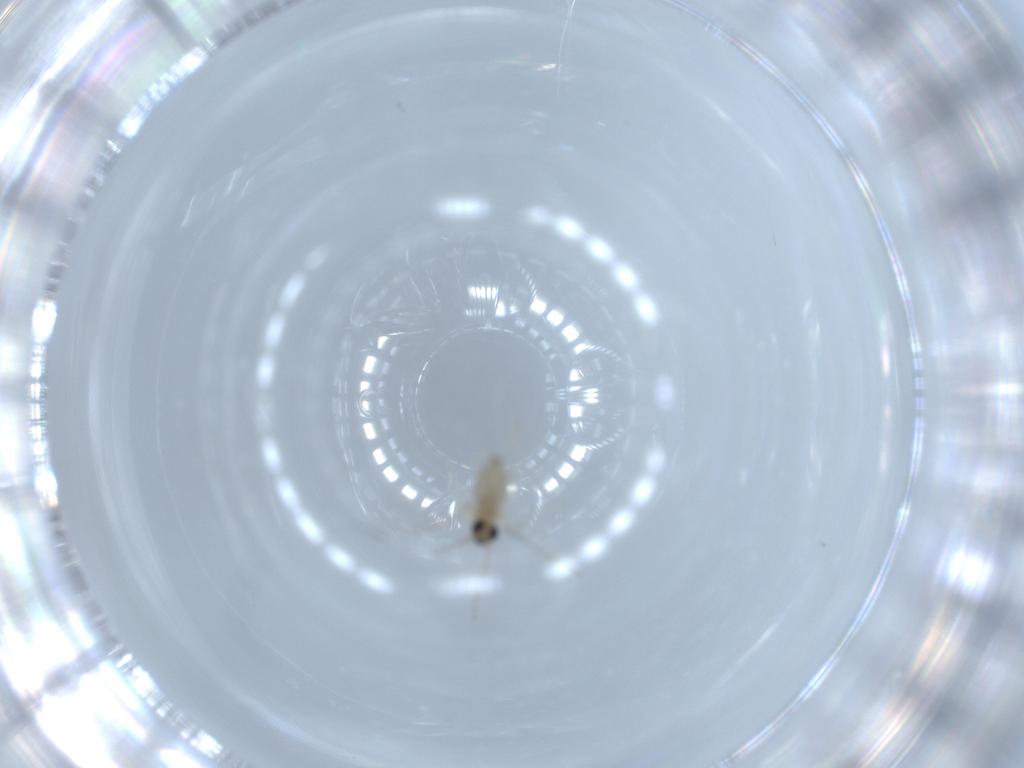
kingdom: Animalia
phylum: Arthropoda
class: Insecta
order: Diptera
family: Cecidomyiidae
